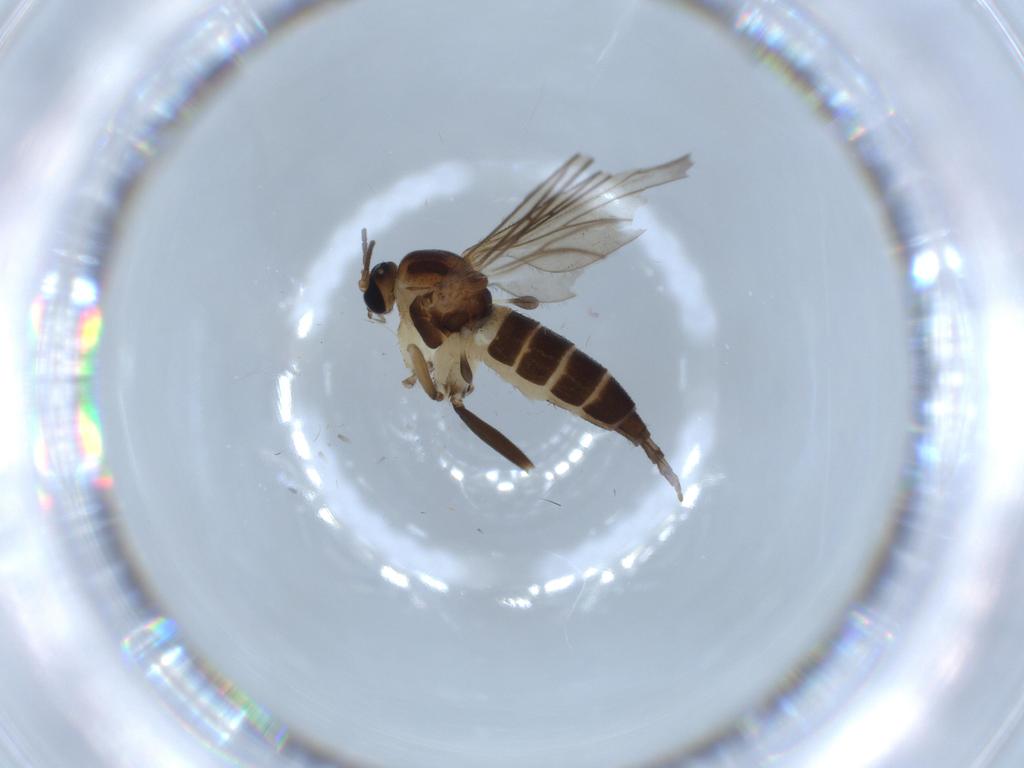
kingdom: Animalia
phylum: Arthropoda
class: Insecta
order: Diptera
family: Sciaridae
